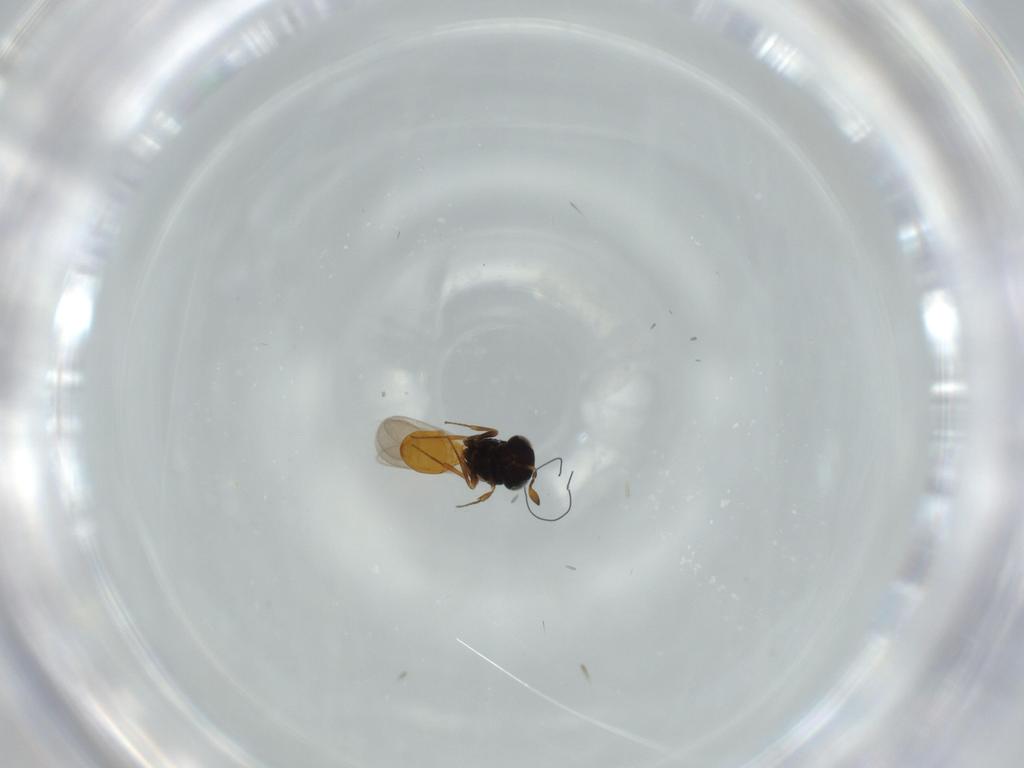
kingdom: Animalia
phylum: Arthropoda
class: Insecta
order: Hymenoptera
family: Scelionidae
